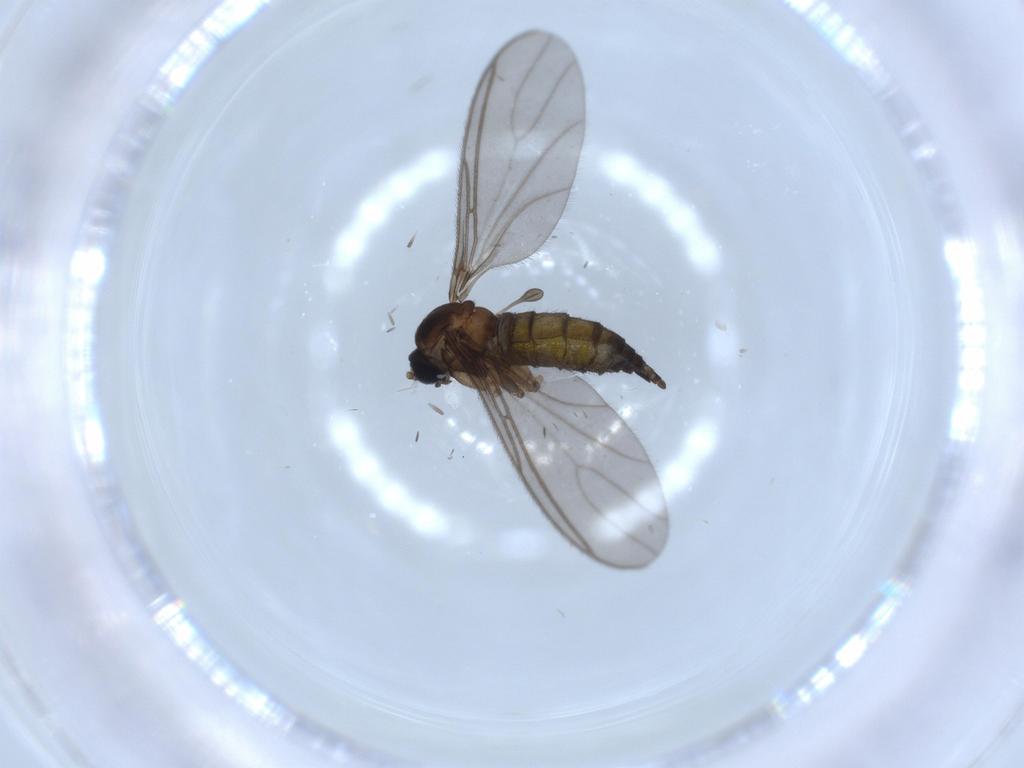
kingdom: Animalia
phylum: Arthropoda
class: Insecta
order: Diptera
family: Sciaridae
